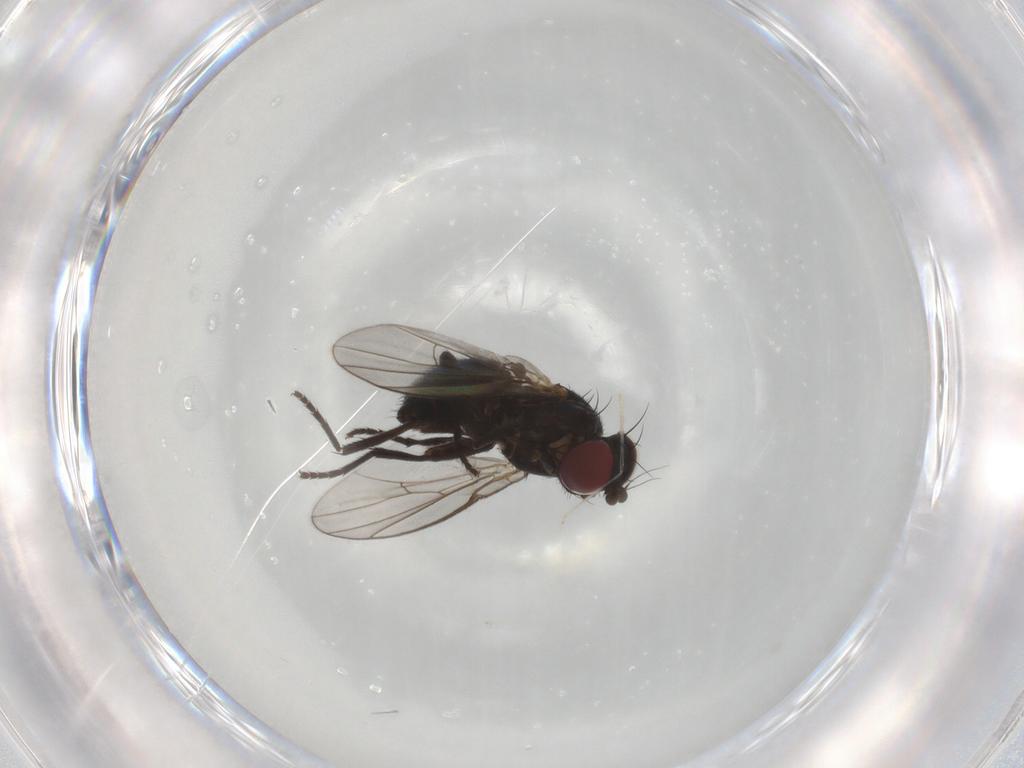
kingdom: Animalia
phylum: Arthropoda
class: Insecta
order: Diptera
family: Agromyzidae
